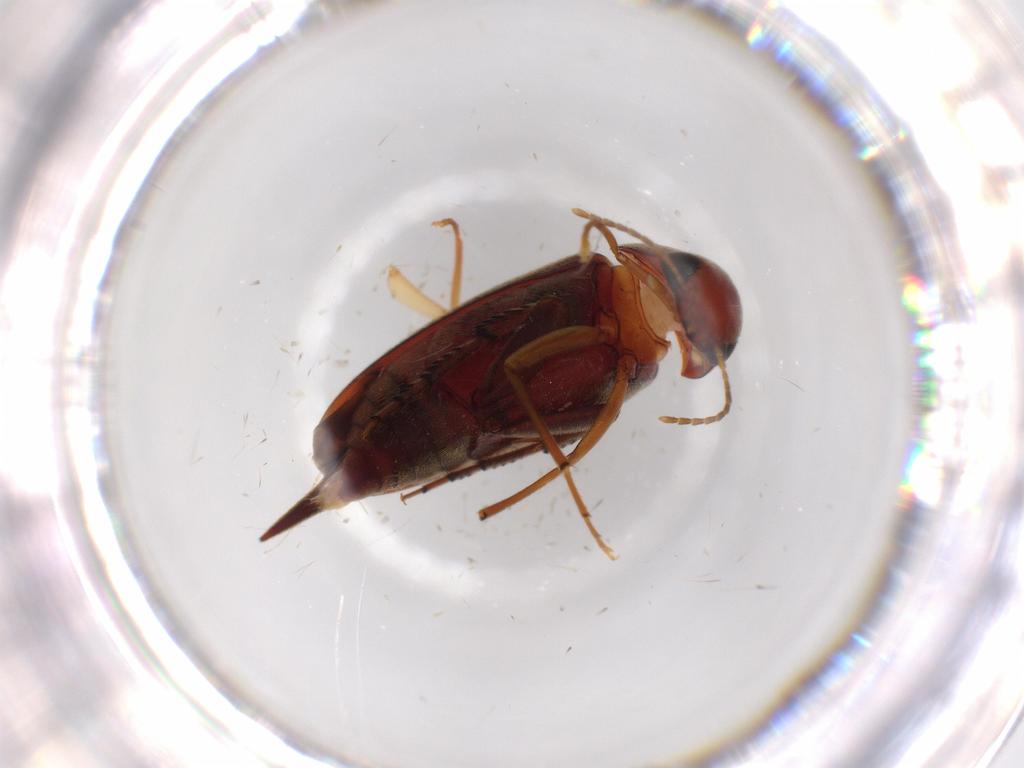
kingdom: Animalia
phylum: Arthropoda
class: Insecta
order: Coleoptera
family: Bostrichidae
